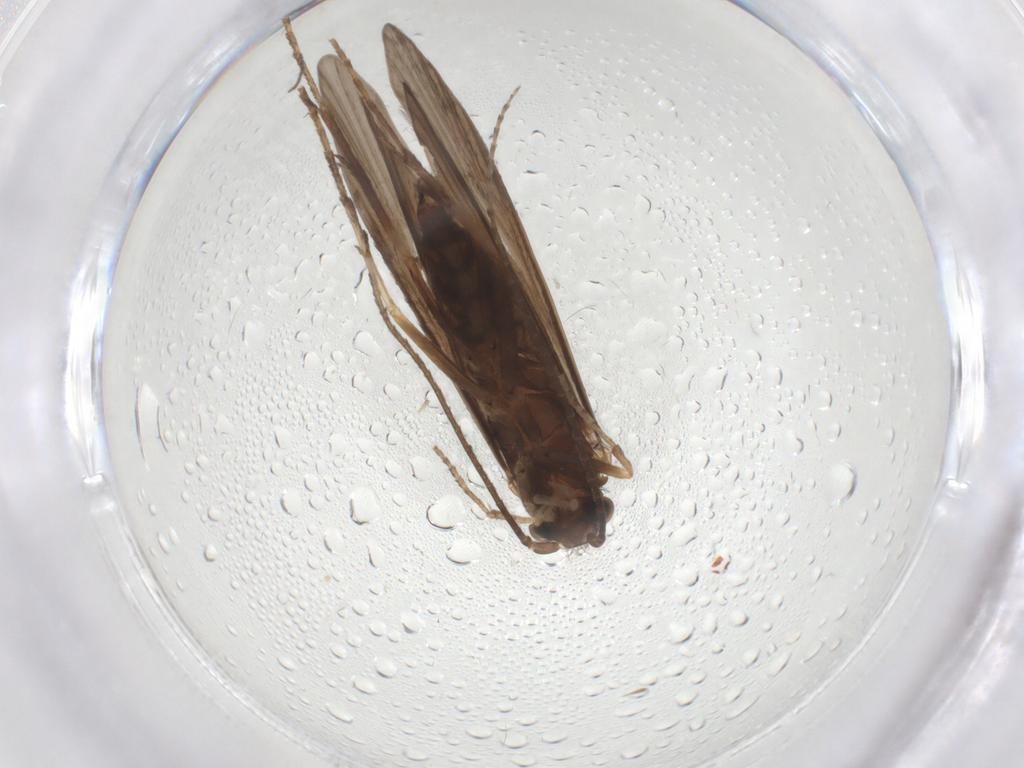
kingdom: Animalia
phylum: Arthropoda
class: Insecta
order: Trichoptera
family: Xiphocentronidae
